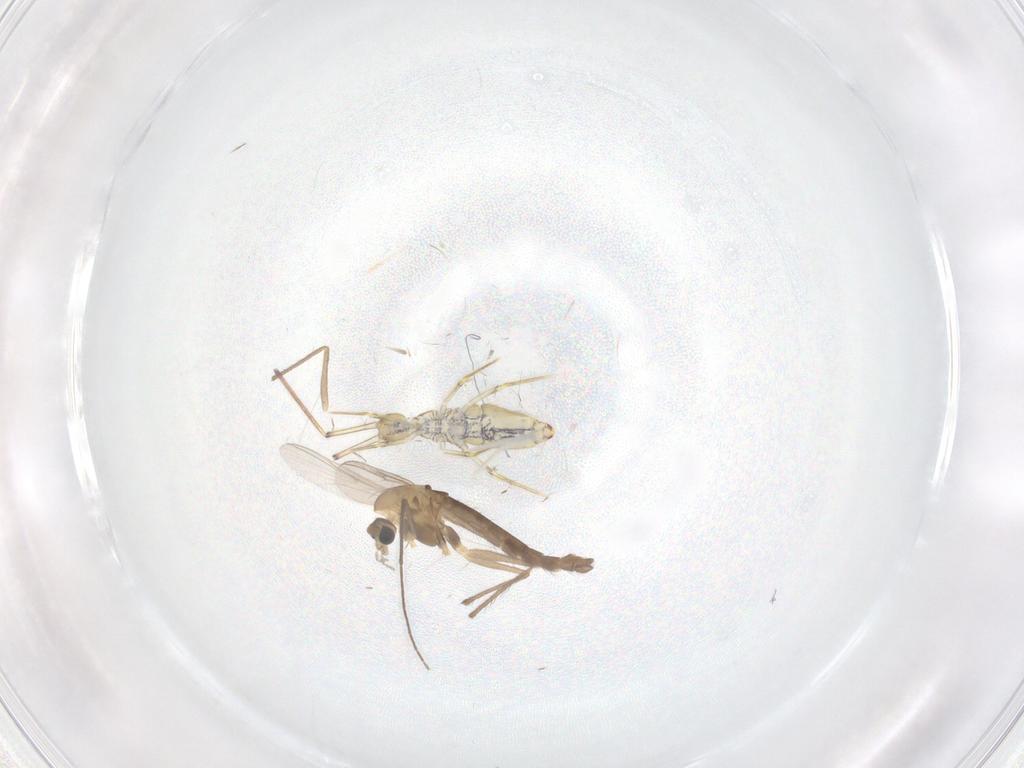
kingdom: Animalia
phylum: Arthropoda
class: Insecta
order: Diptera
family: Chironomidae
